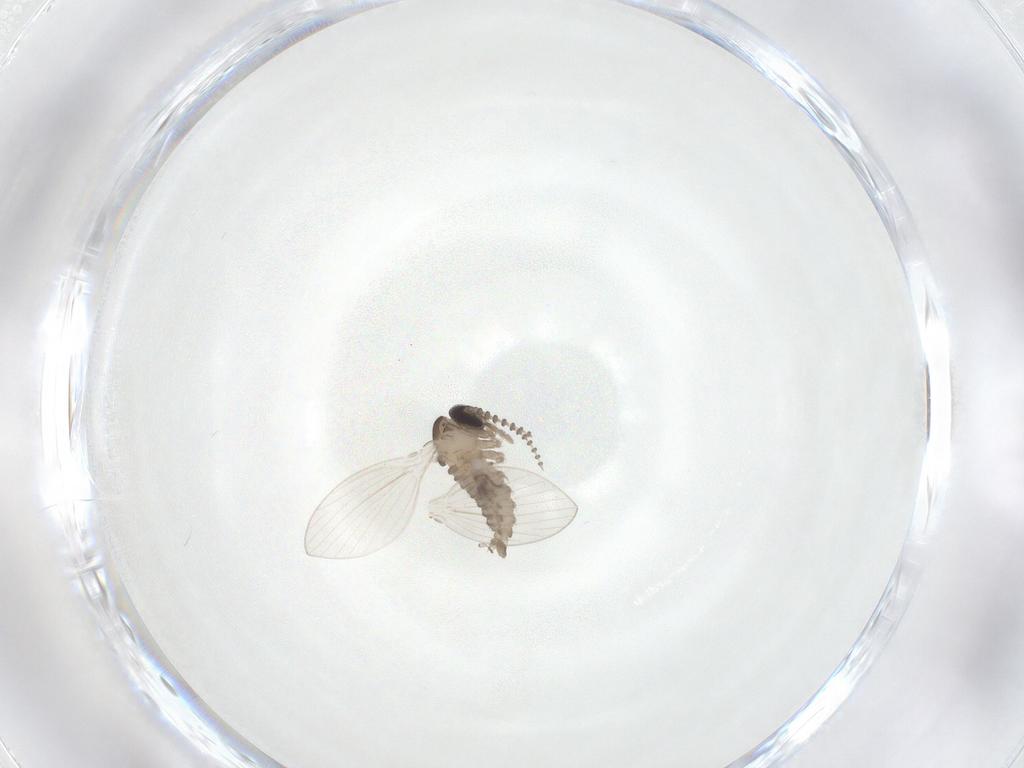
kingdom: Animalia
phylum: Arthropoda
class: Insecta
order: Diptera
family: Psychodidae
